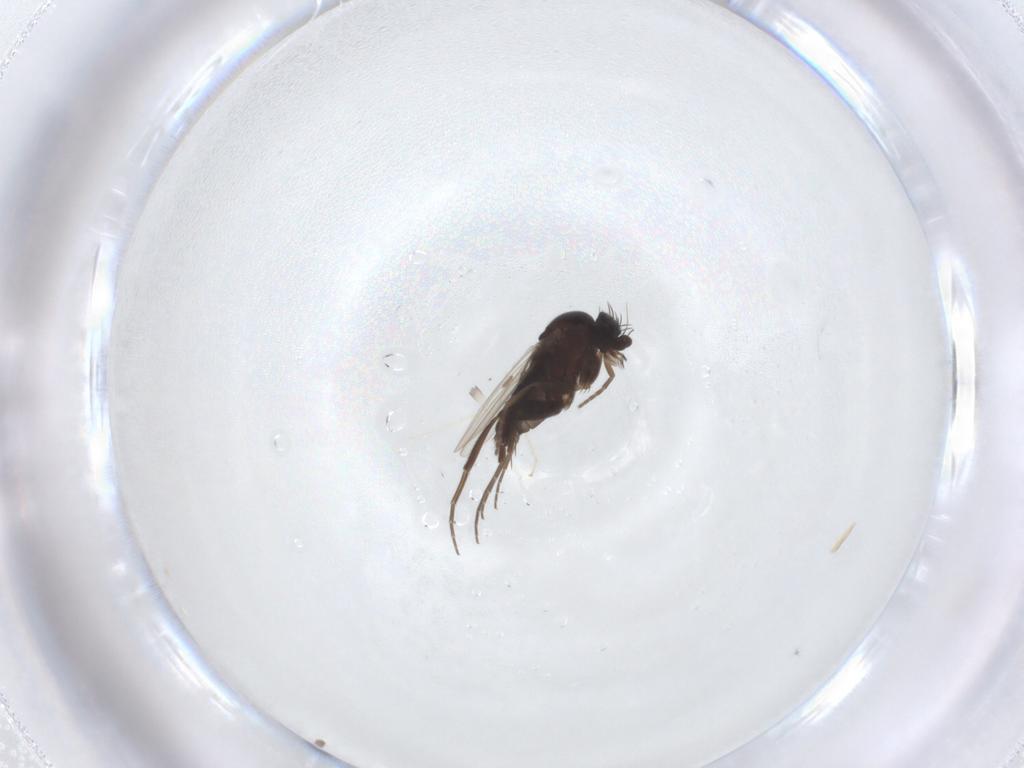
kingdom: Animalia
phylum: Arthropoda
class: Insecta
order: Diptera
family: Phoridae
